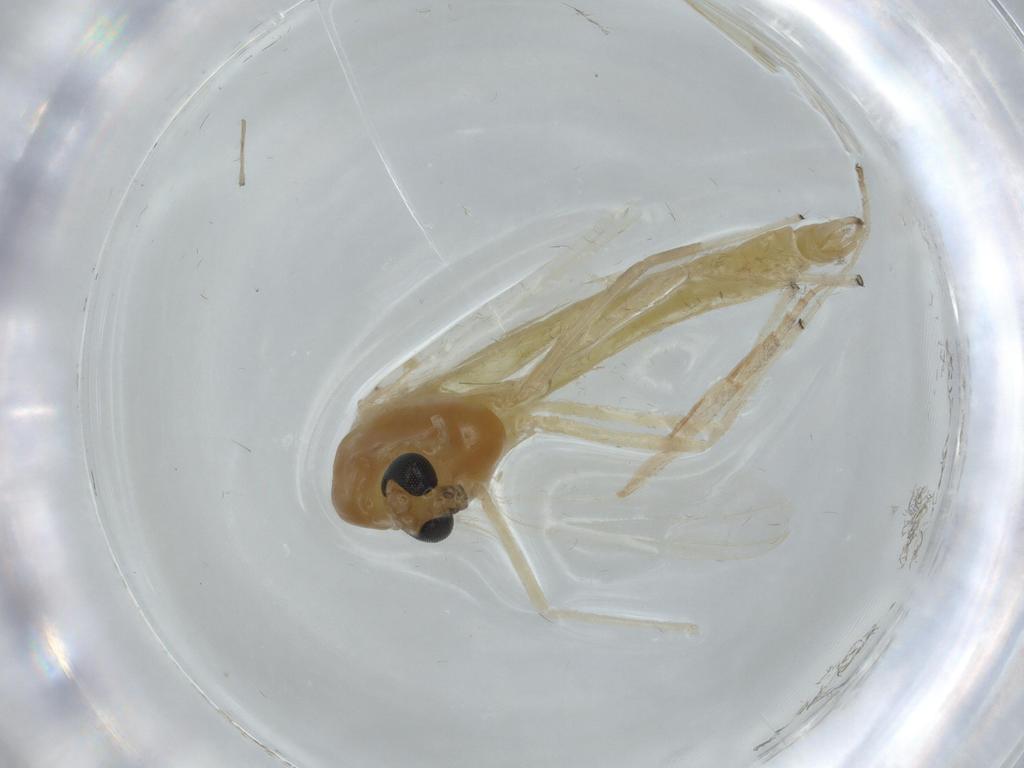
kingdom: Animalia
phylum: Arthropoda
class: Insecta
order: Diptera
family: Chironomidae
